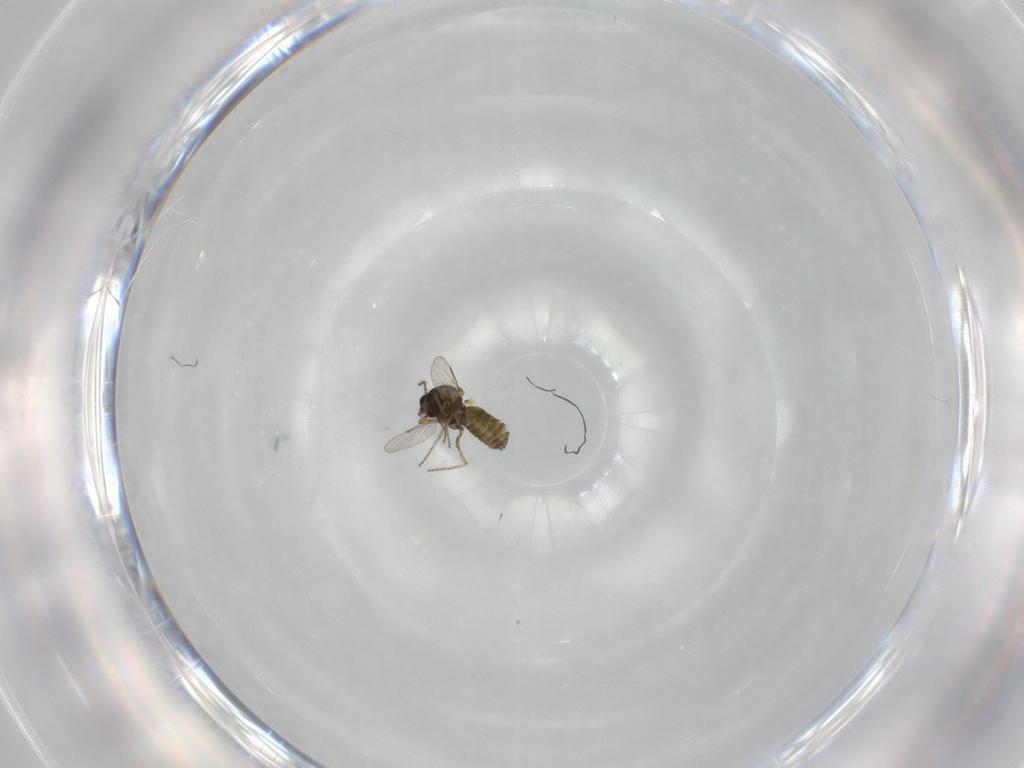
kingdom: Animalia
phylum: Arthropoda
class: Insecta
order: Diptera
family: Ceratopogonidae
